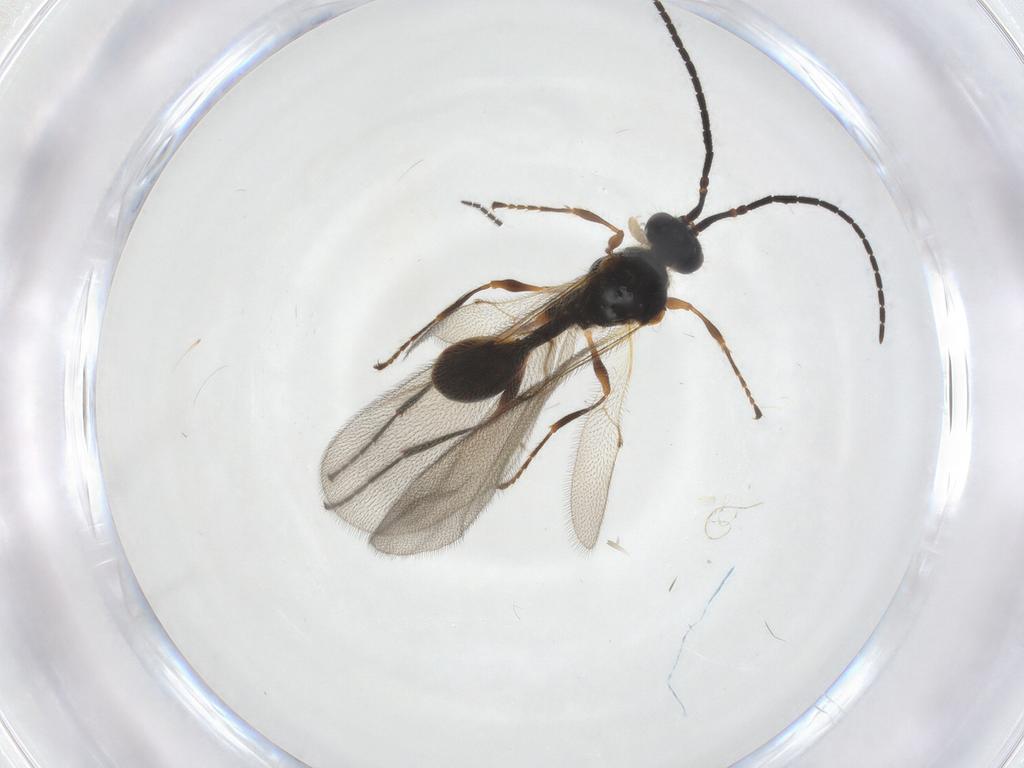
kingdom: Animalia
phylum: Arthropoda
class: Insecta
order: Hymenoptera
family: Diapriidae
